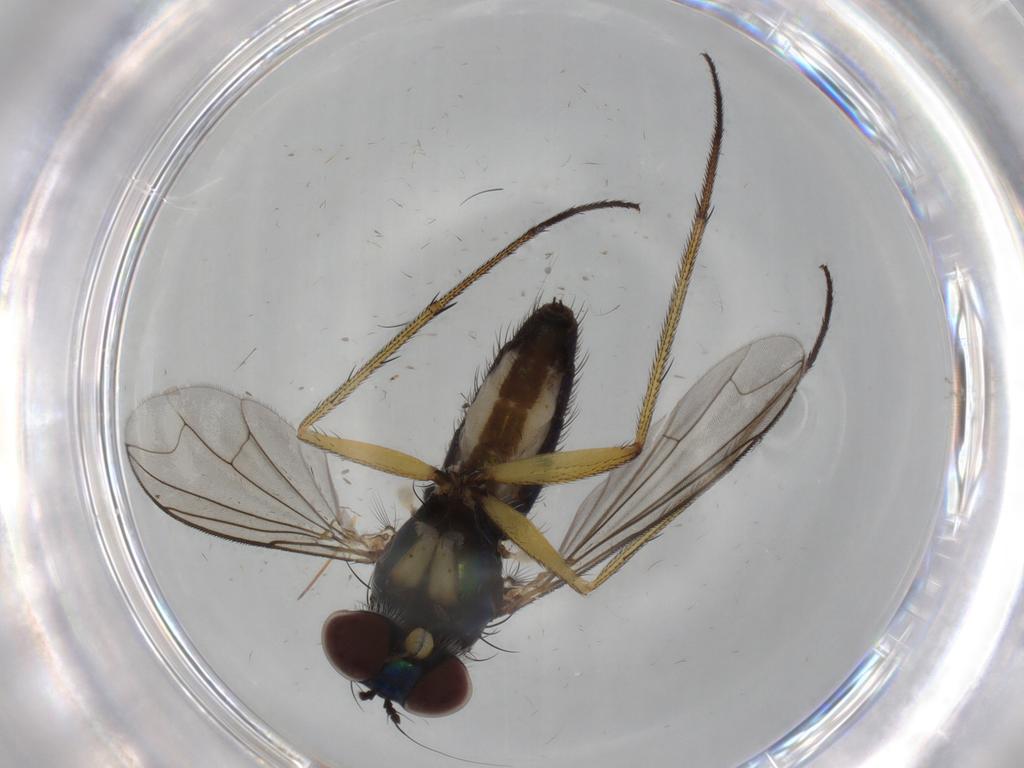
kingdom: Animalia
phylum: Arthropoda
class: Insecta
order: Diptera
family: Dolichopodidae
